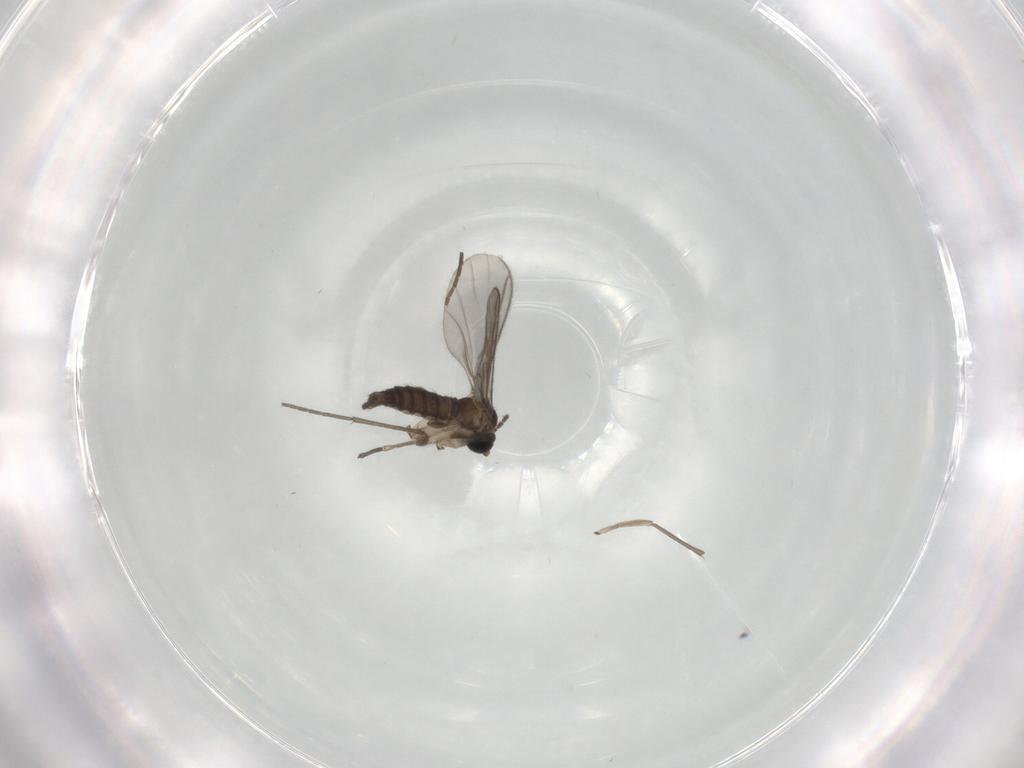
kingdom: Animalia
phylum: Arthropoda
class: Insecta
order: Diptera
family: Sciaridae
